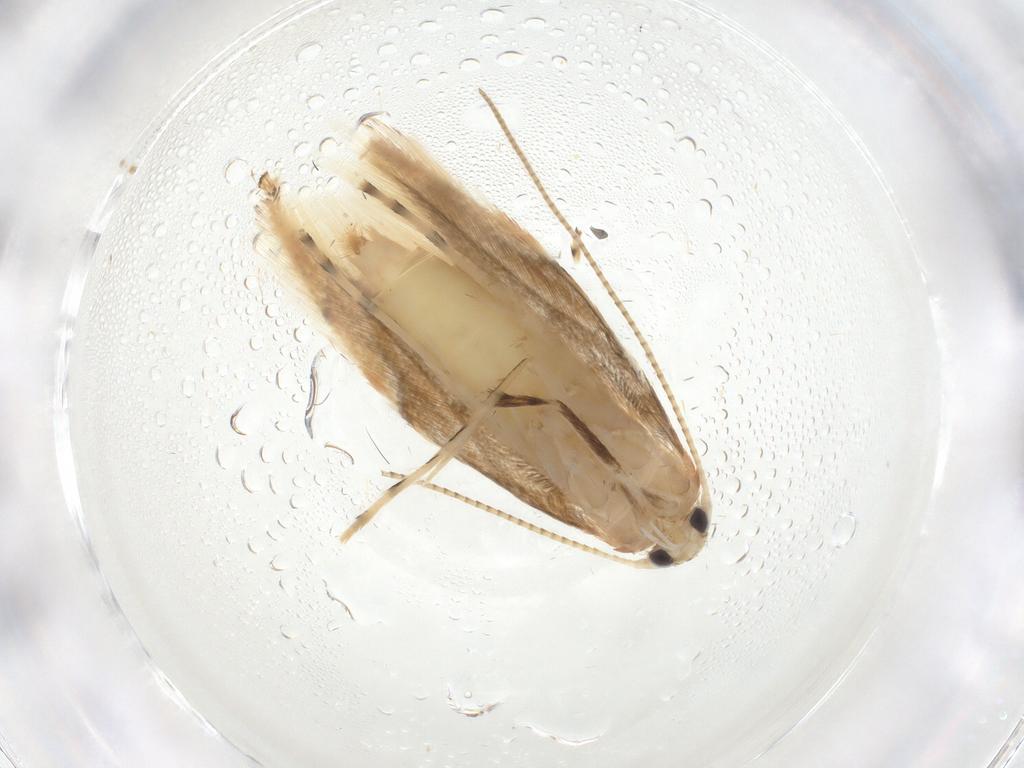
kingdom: Animalia
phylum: Arthropoda
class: Insecta
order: Lepidoptera
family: Gracillariidae
